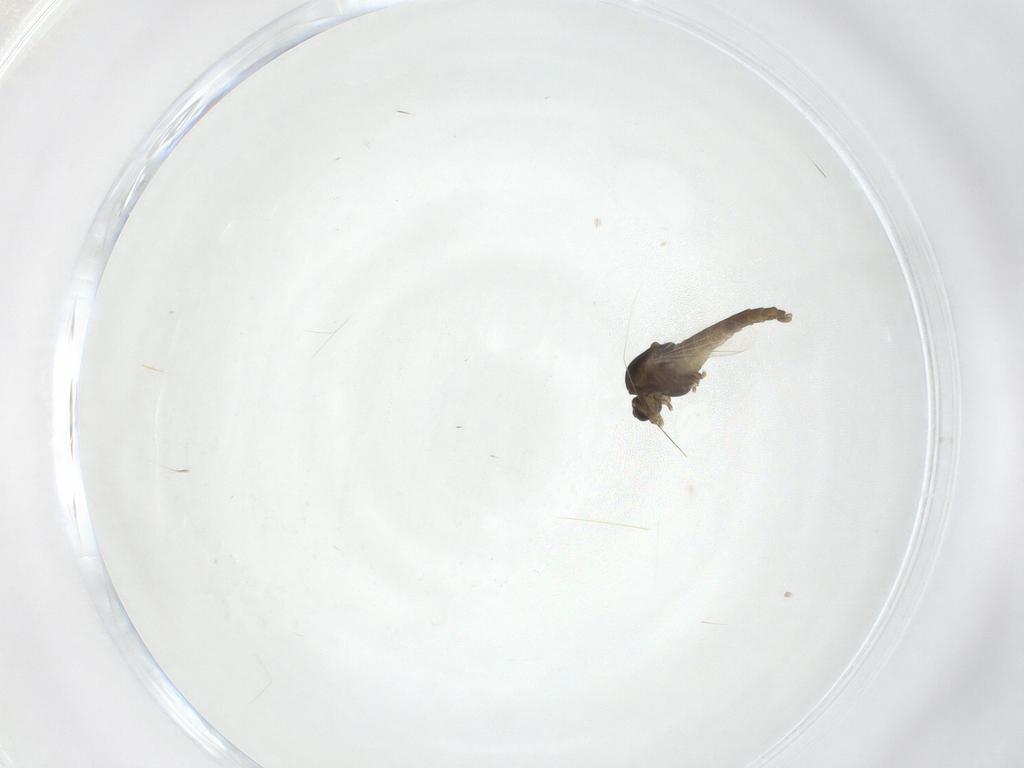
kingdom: Animalia
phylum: Arthropoda
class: Insecta
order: Diptera
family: Chironomidae
